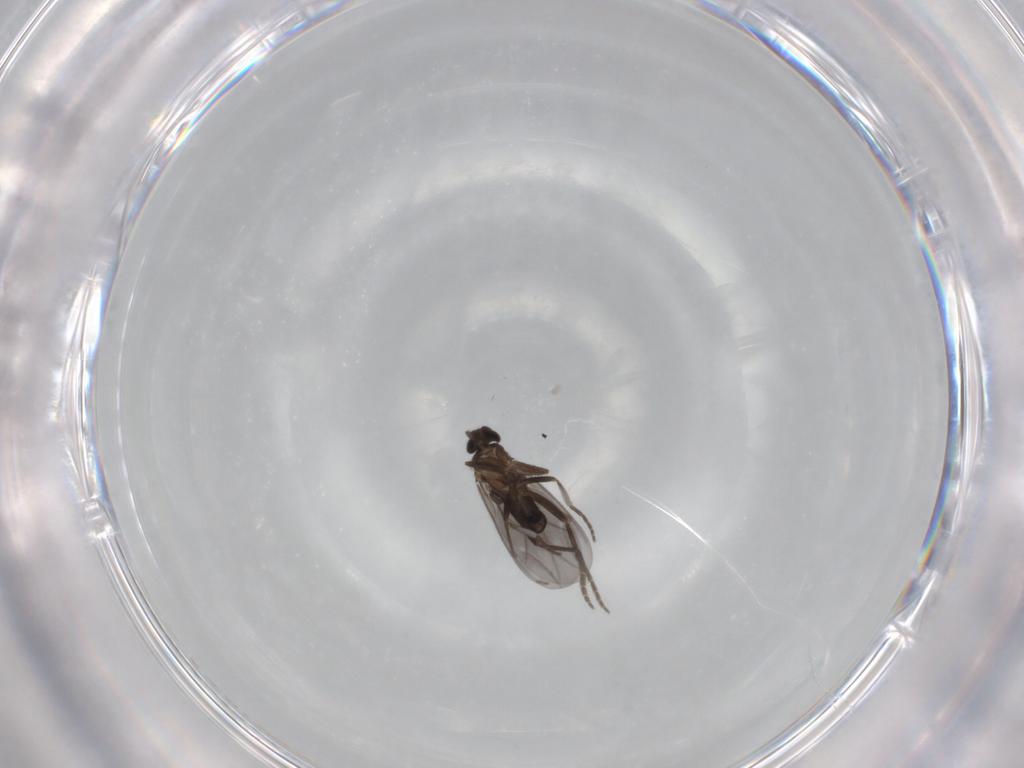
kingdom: Animalia
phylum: Arthropoda
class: Insecta
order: Diptera
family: Phoridae
